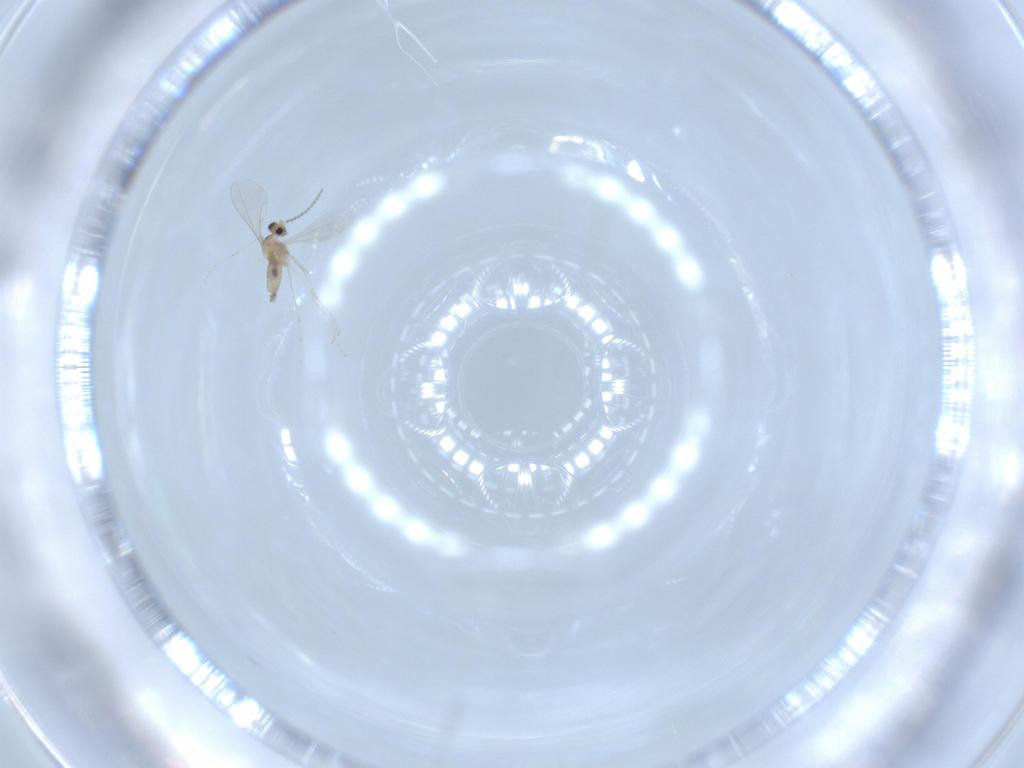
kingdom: Animalia
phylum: Arthropoda
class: Insecta
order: Diptera
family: Cecidomyiidae
